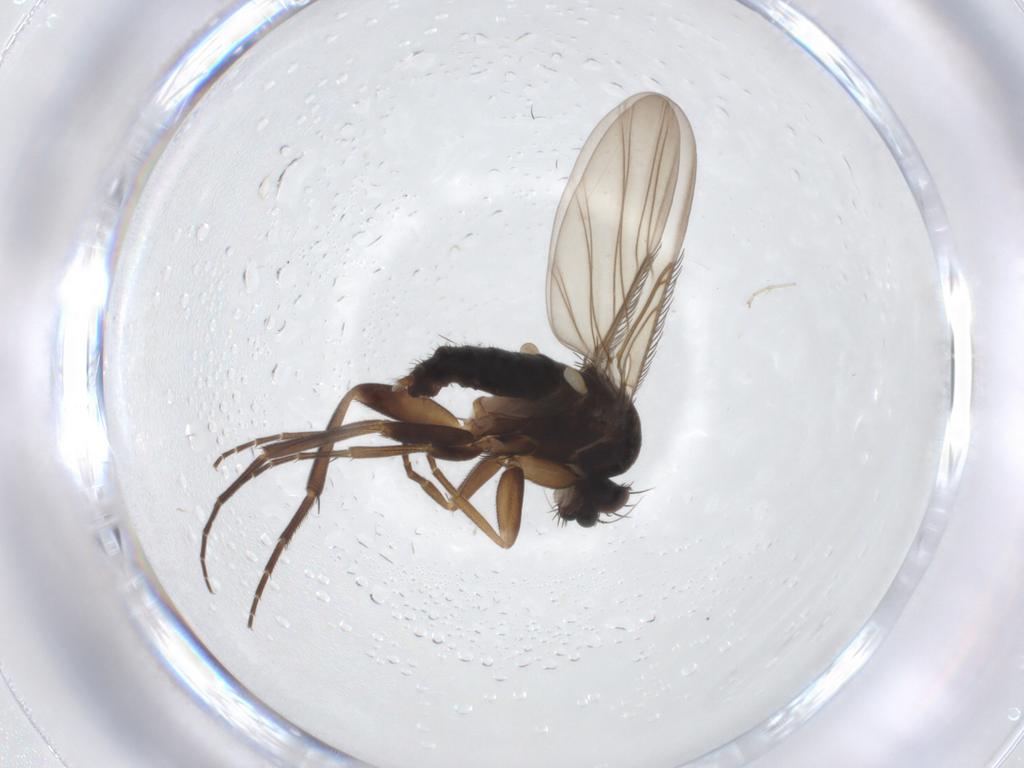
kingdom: Animalia
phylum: Arthropoda
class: Insecta
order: Diptera
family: Phoridae
